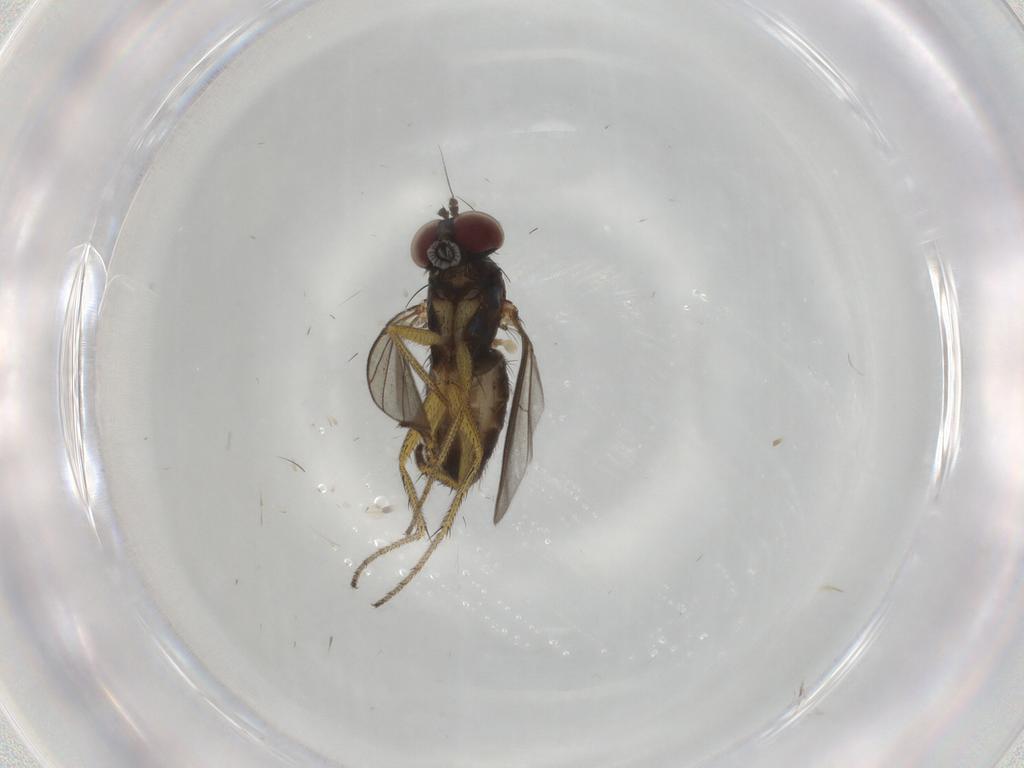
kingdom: Animalia
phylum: Arthropoda
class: Insecta
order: Diptera
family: Dolichopodidae
